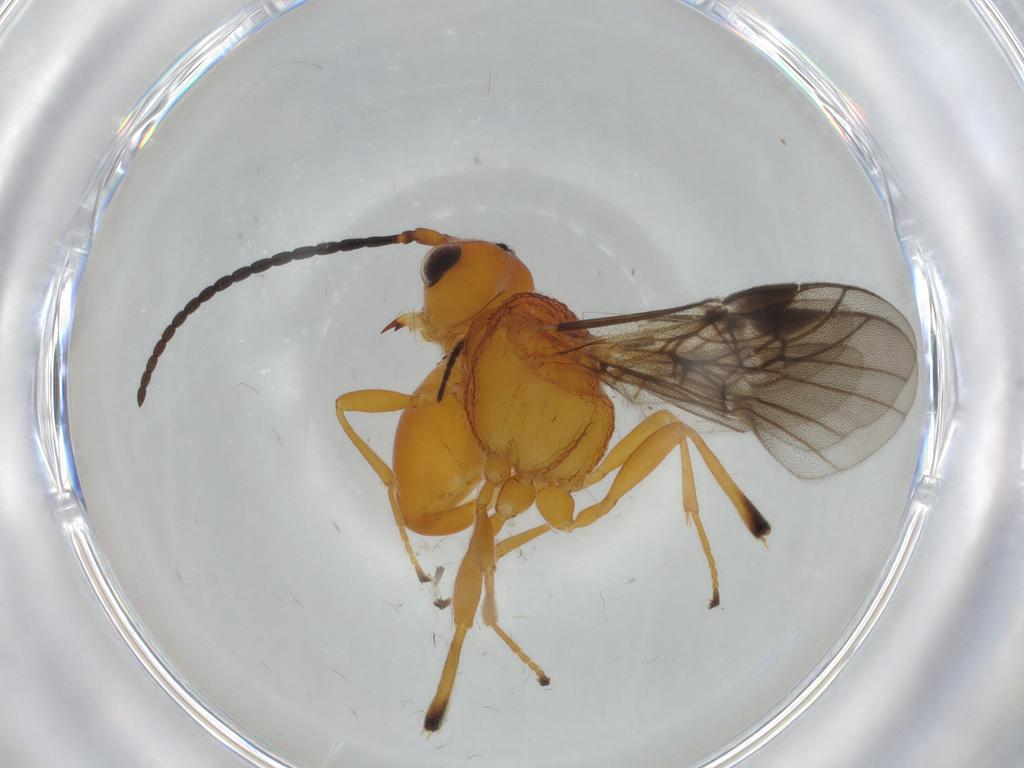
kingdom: Animalia
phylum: Arthropoda
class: Insecta
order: Hymenoptera
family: Braconidae
